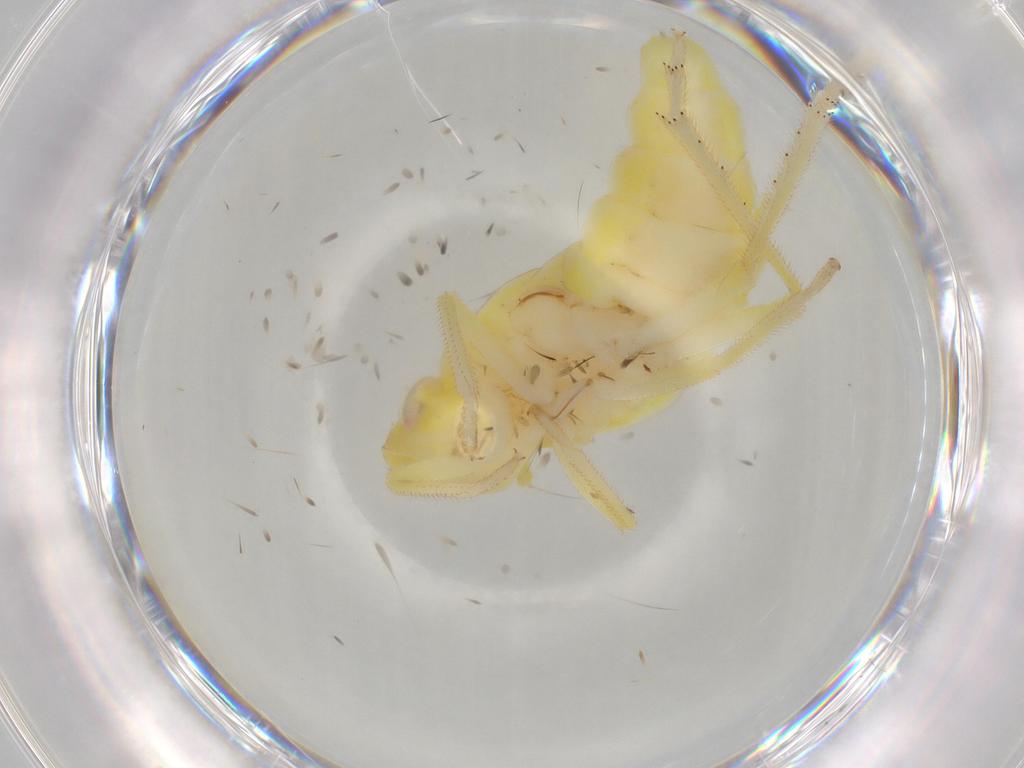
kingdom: Animalia
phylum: Arthropoda
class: Insecta
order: Hemiptera
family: Tropiduchidae
